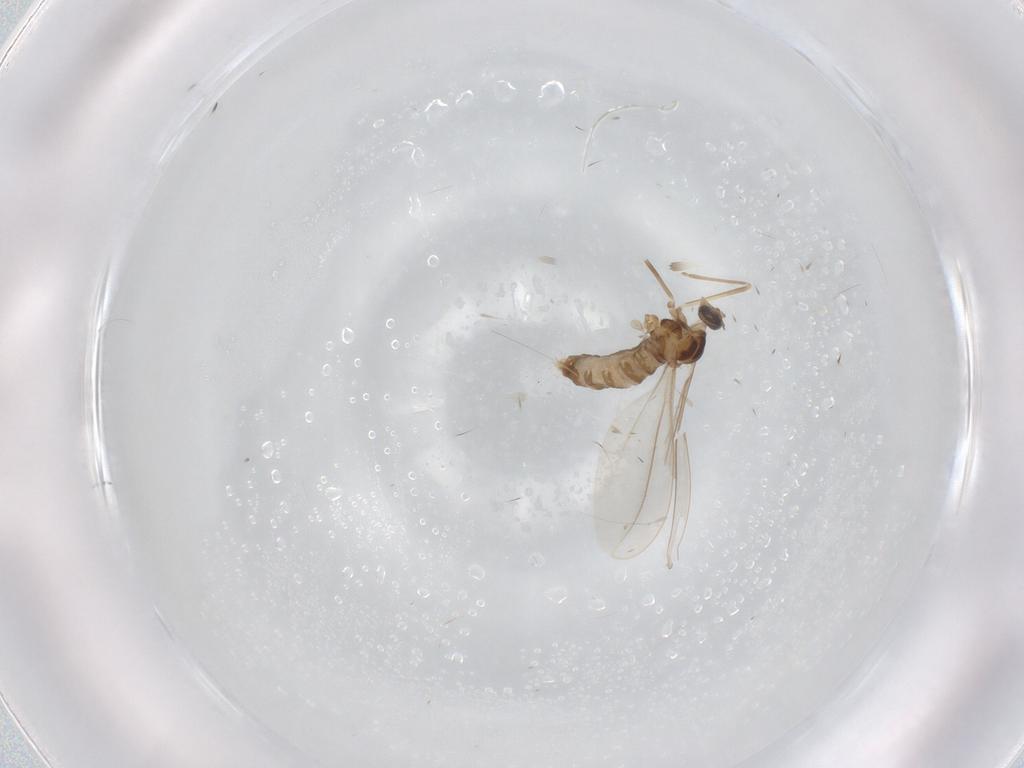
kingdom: Animalia
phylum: Arthropoda
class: Insecta
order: Diptera
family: Cecidomyiidae
